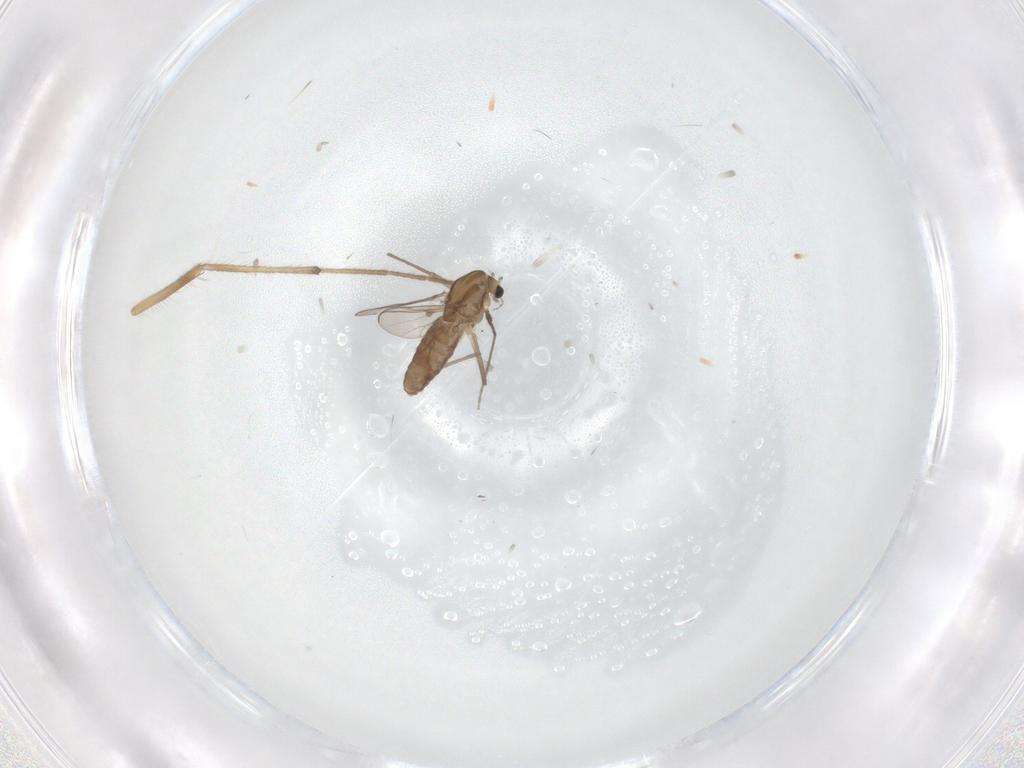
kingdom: Animalia
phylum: Arthropoda
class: Insecta
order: Diptera
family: Chironomidae
